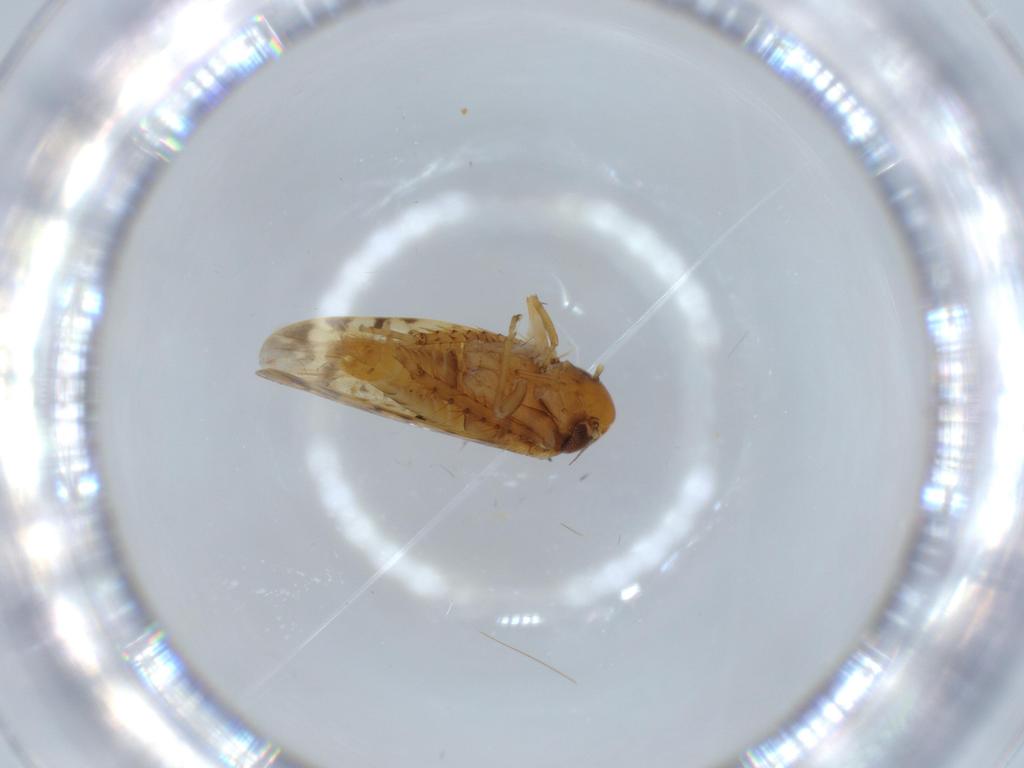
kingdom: Animalia
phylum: Arthropoda
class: Insecta
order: Hemiptera
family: Cicadellidae
